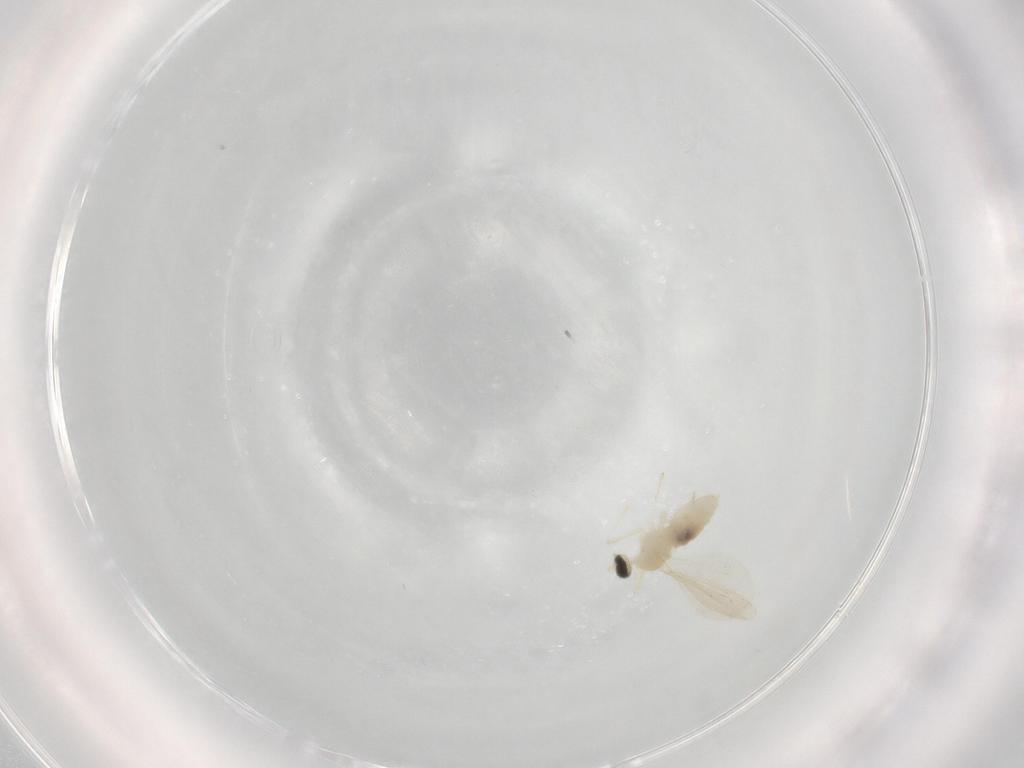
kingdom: Animalia
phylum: Arthropoda
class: Insecta
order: Diptera
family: Cecidomyiidae
